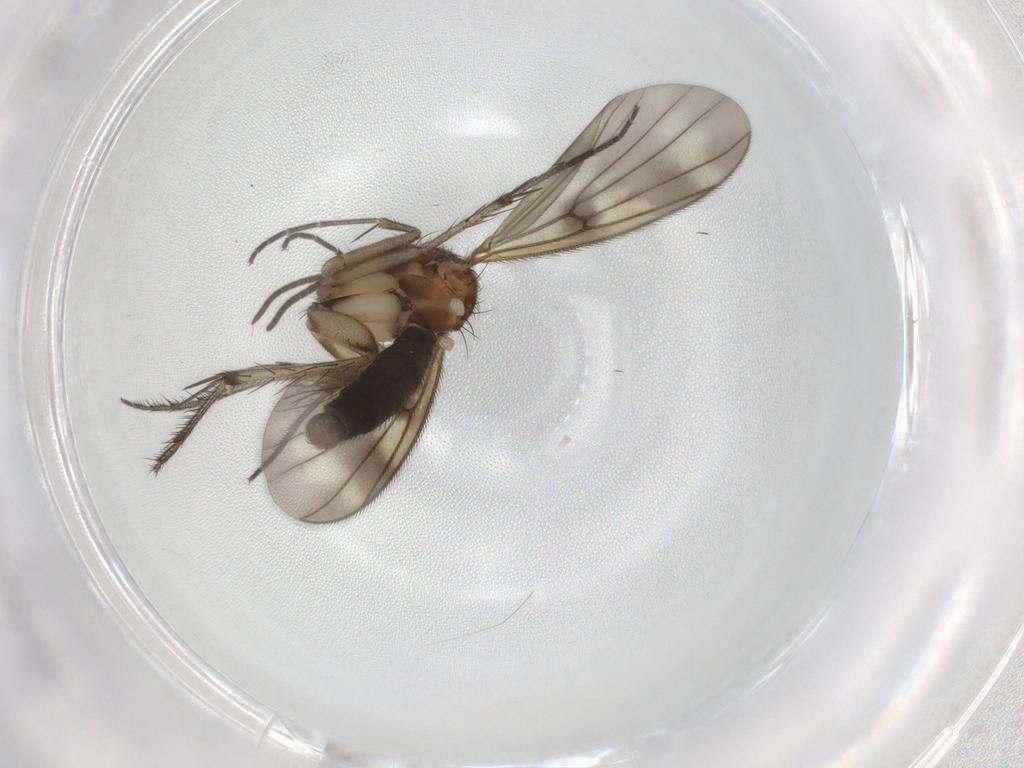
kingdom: Animalia
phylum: Arthropoda
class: Insecta
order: Diptera
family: Mycetophilidae
